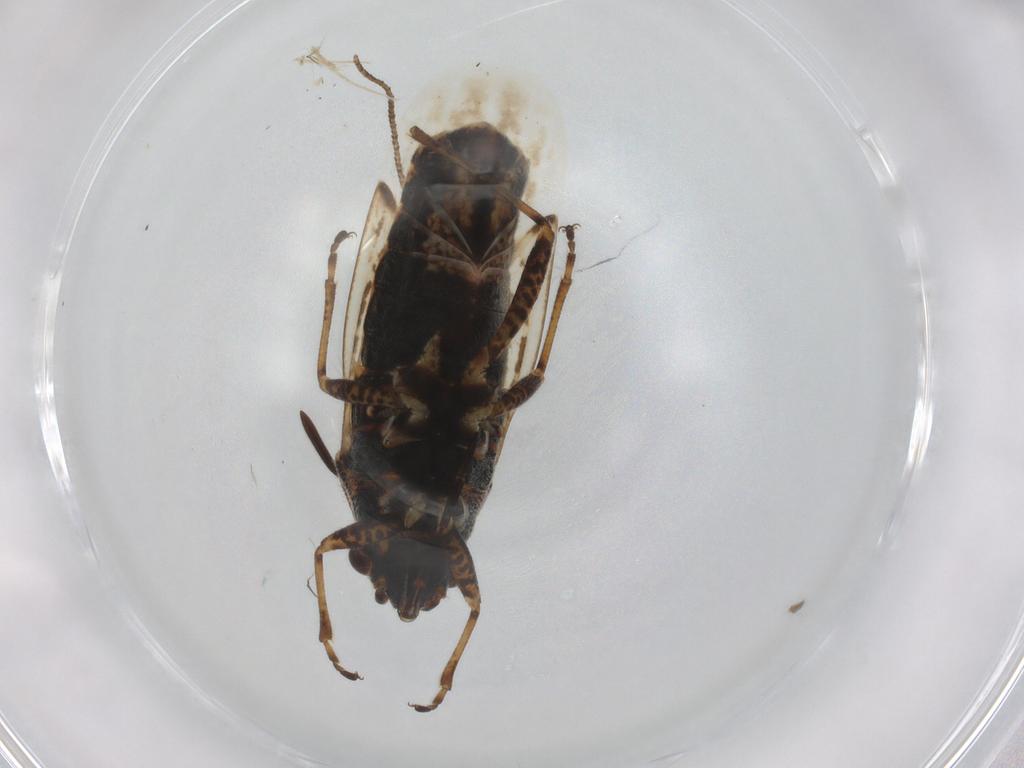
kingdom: Animalia
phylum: Arthropoda
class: Insecta
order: Hemiptera
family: Lygaeidae
